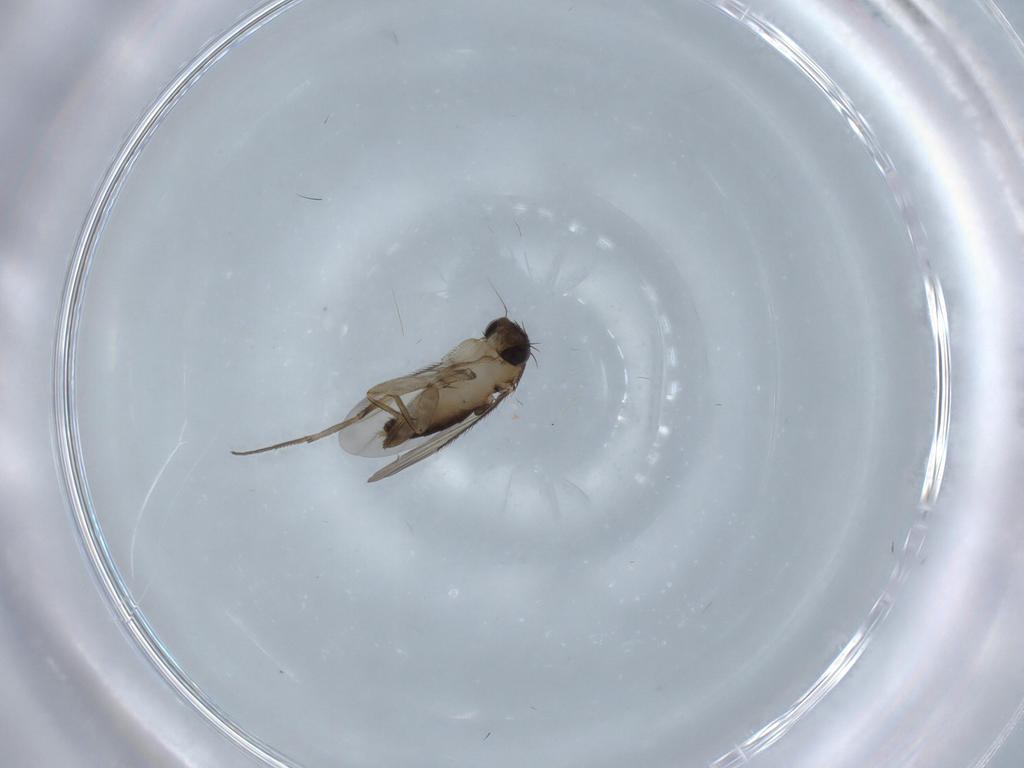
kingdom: Animalia
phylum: Arthropoda
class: Insecta
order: Diptera
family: Phoridae
